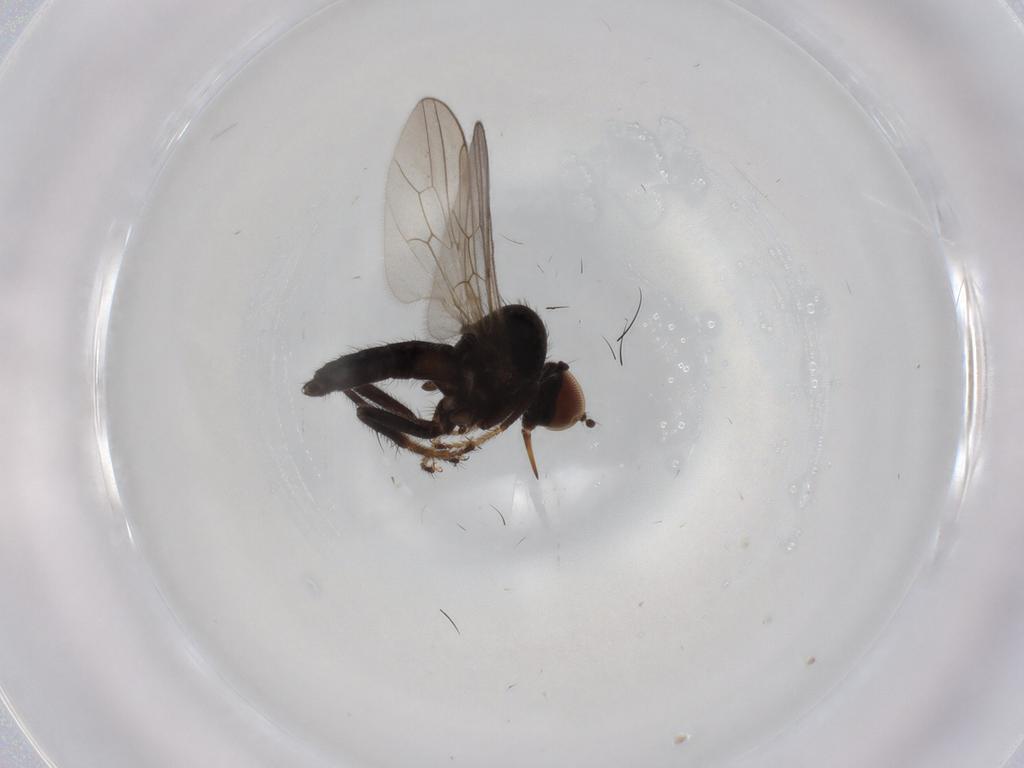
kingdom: Animalia
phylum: Arthropoda
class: Insecta
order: Diptera
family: Hybotidae
